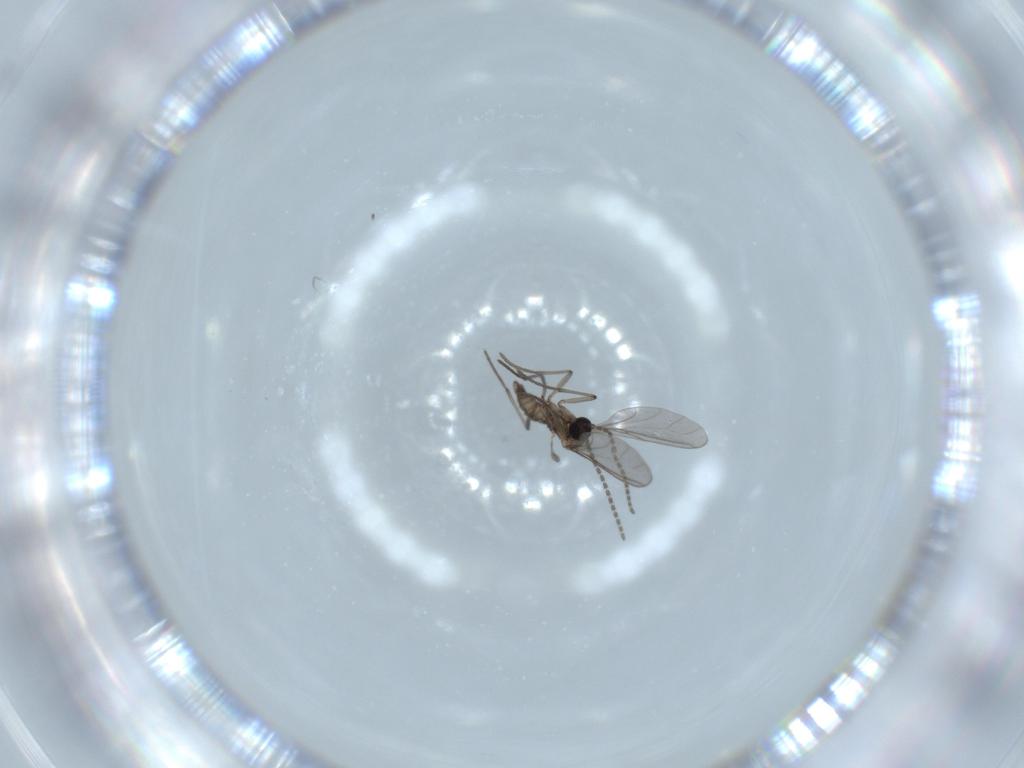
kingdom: Animalia
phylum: Arthropoda
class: Insecta
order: Diptera
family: Sciaridae
